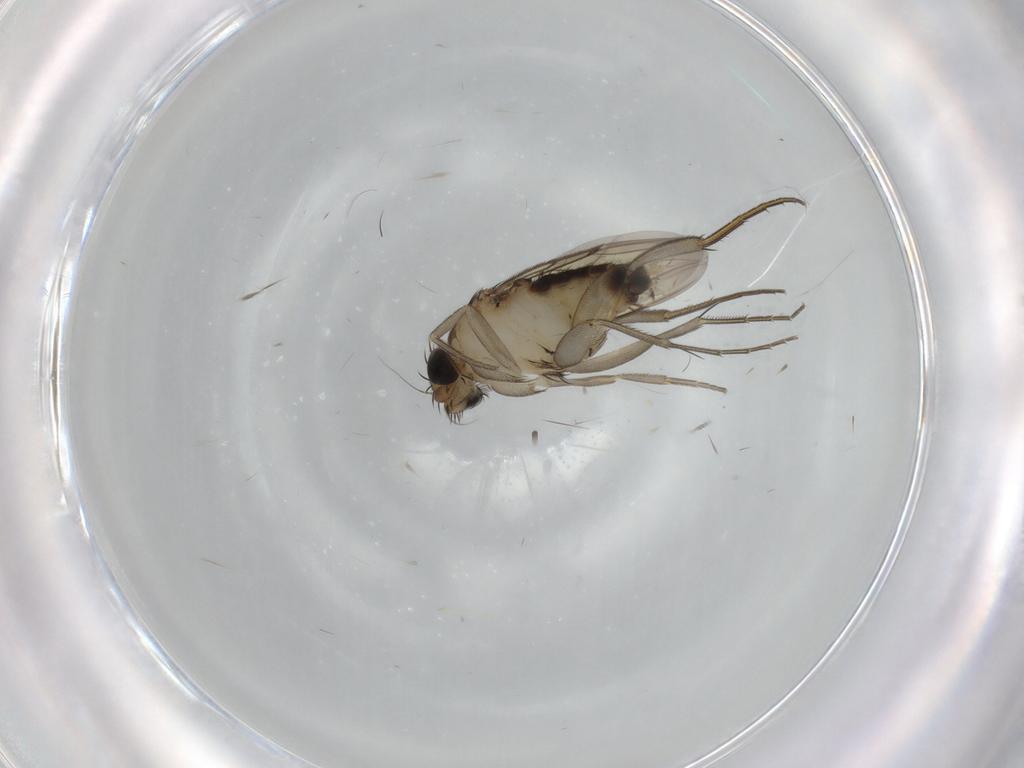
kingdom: Animalia
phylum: Arthropoda
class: Insecta
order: Diptera
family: Phoridae
